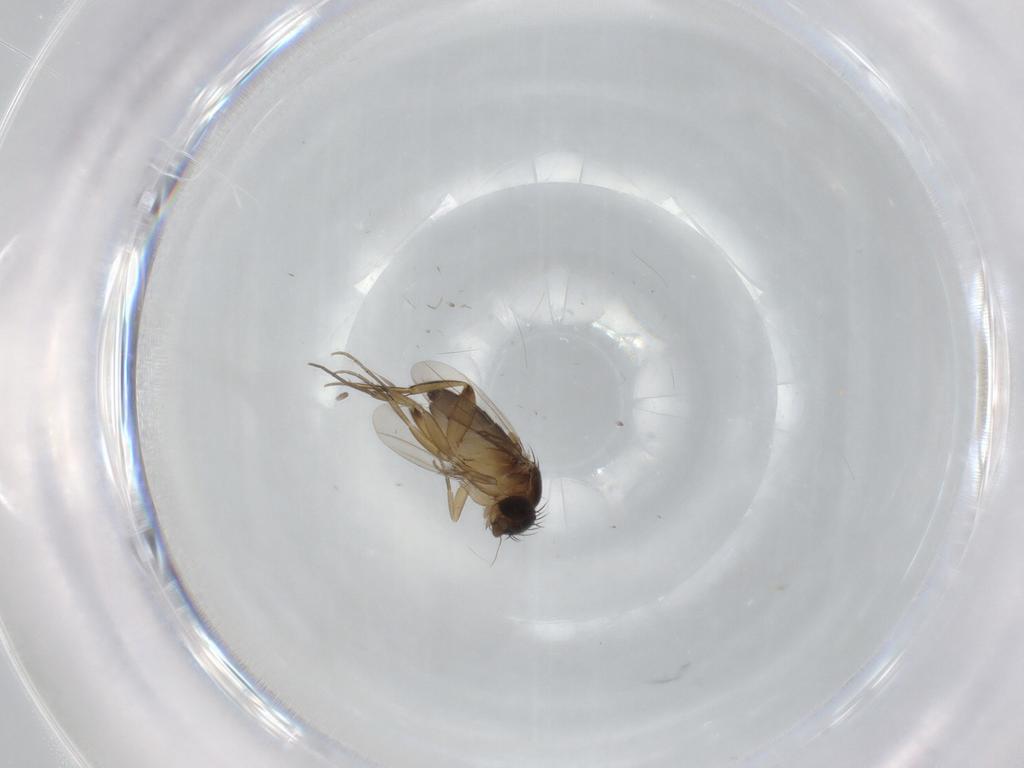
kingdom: Animalia
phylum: Arthropoda
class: Insecta
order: Diptera
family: Phoridae
